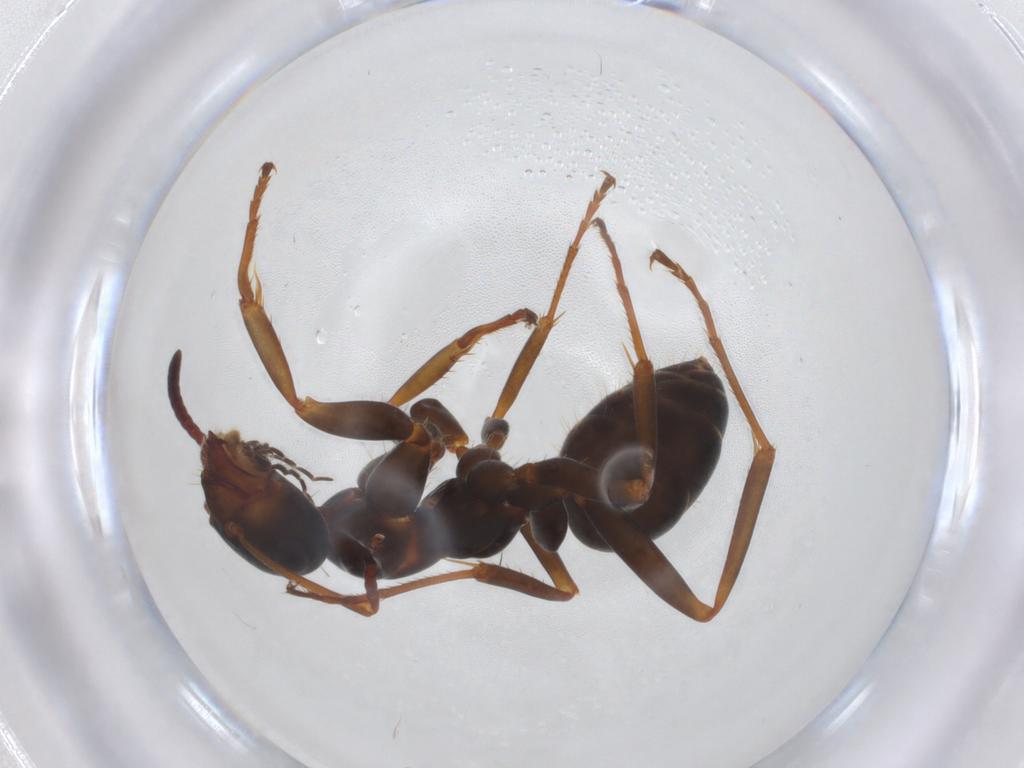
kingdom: Animalia
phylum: Arthropoda
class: Insecta
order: Hymenoptera
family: Formicidae
